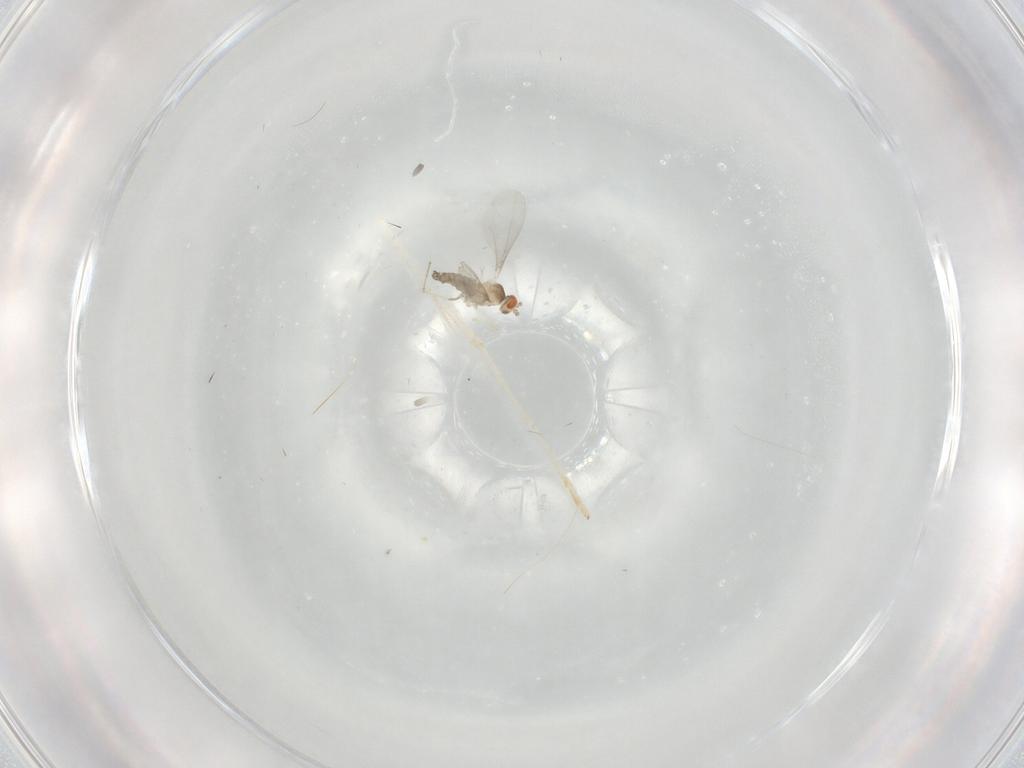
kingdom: Animalia
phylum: Arthropoda
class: Insecta
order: Diptera
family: Cecidomyiidae
